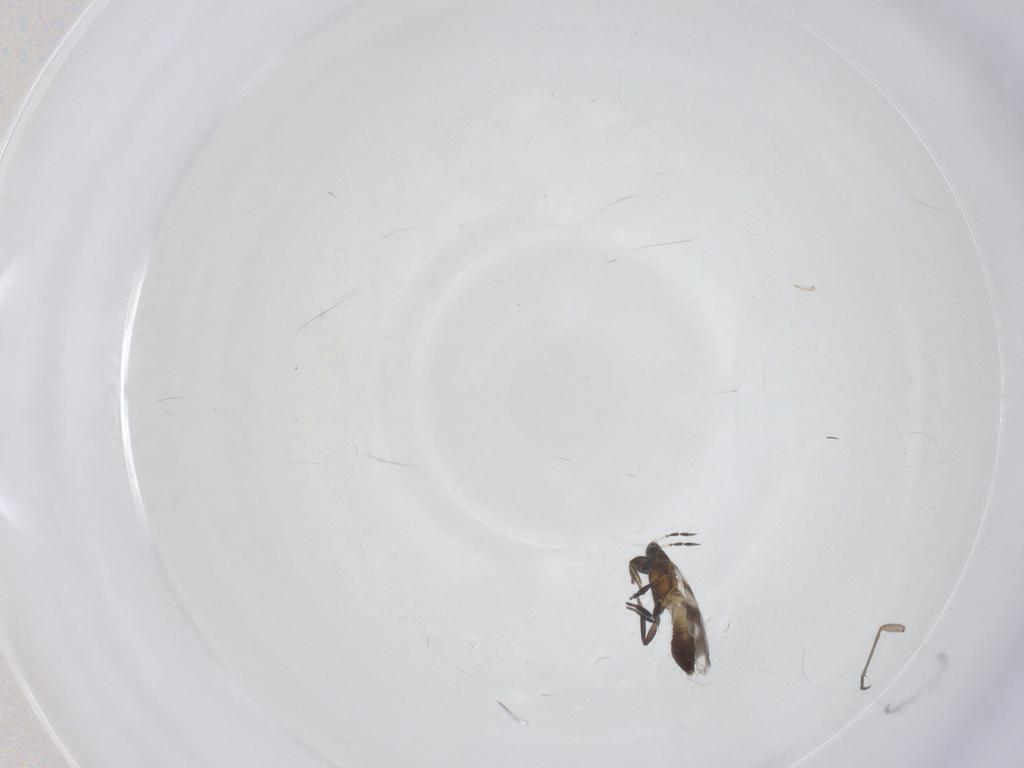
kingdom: Animalia
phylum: Arthropoda
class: Insecta
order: Thysanoptera
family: Aeolothripidae
